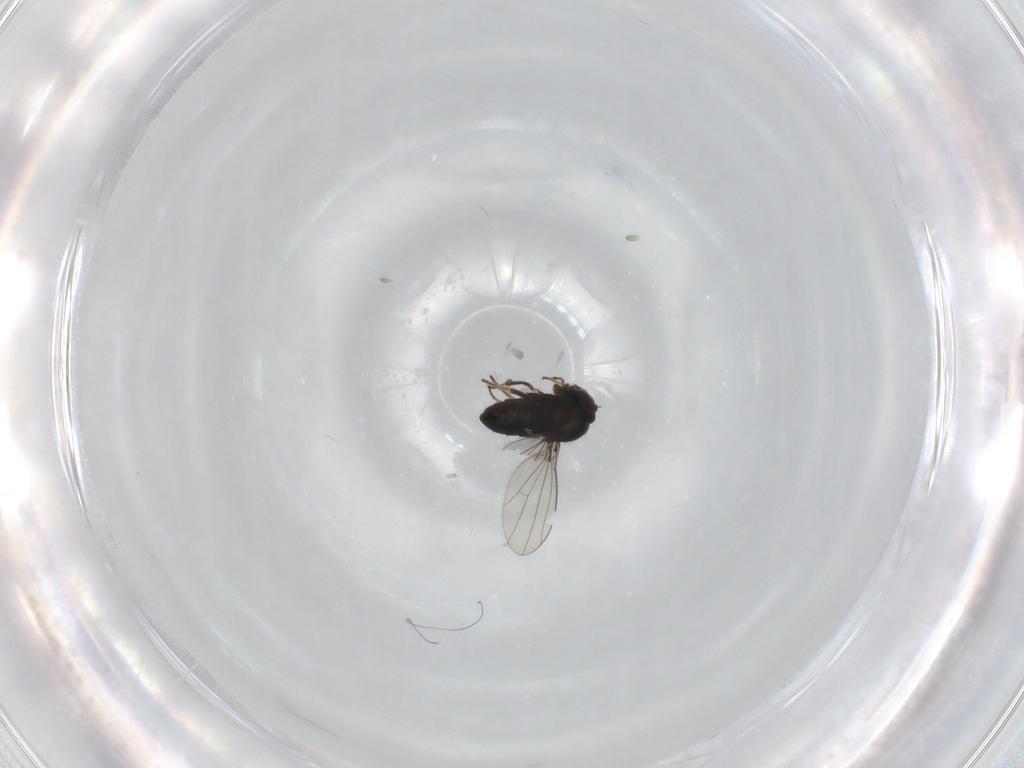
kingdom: Animalia
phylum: Arthropoda
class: Insecta
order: Diptera
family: Dolichopodidae
